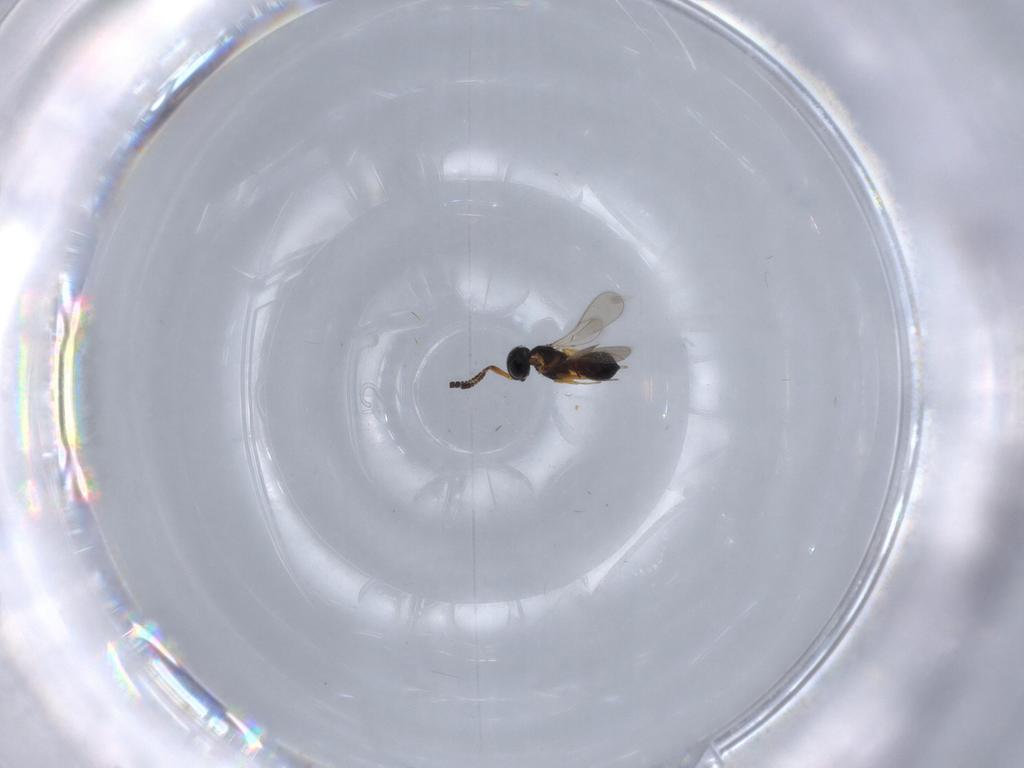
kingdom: Animalia
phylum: Arthropoda
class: Insecta
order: Hymenoptera
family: Scelionidae
